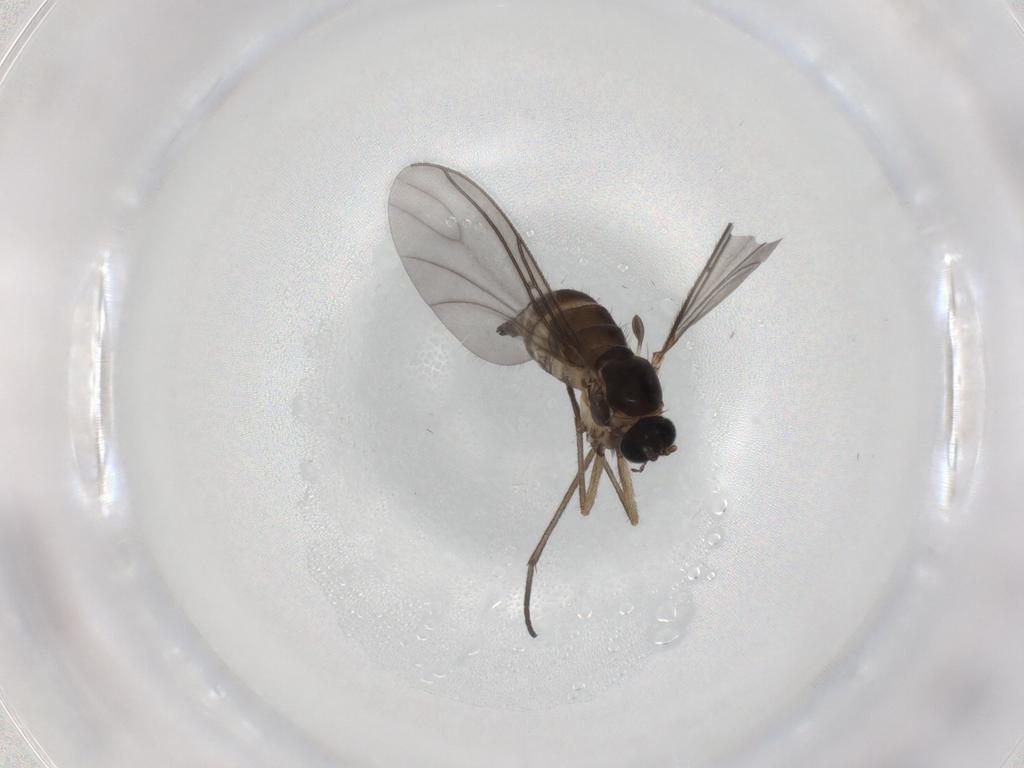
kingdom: Animalia
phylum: Arthropoda
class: Insecta
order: Diptera
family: Sciaridae
